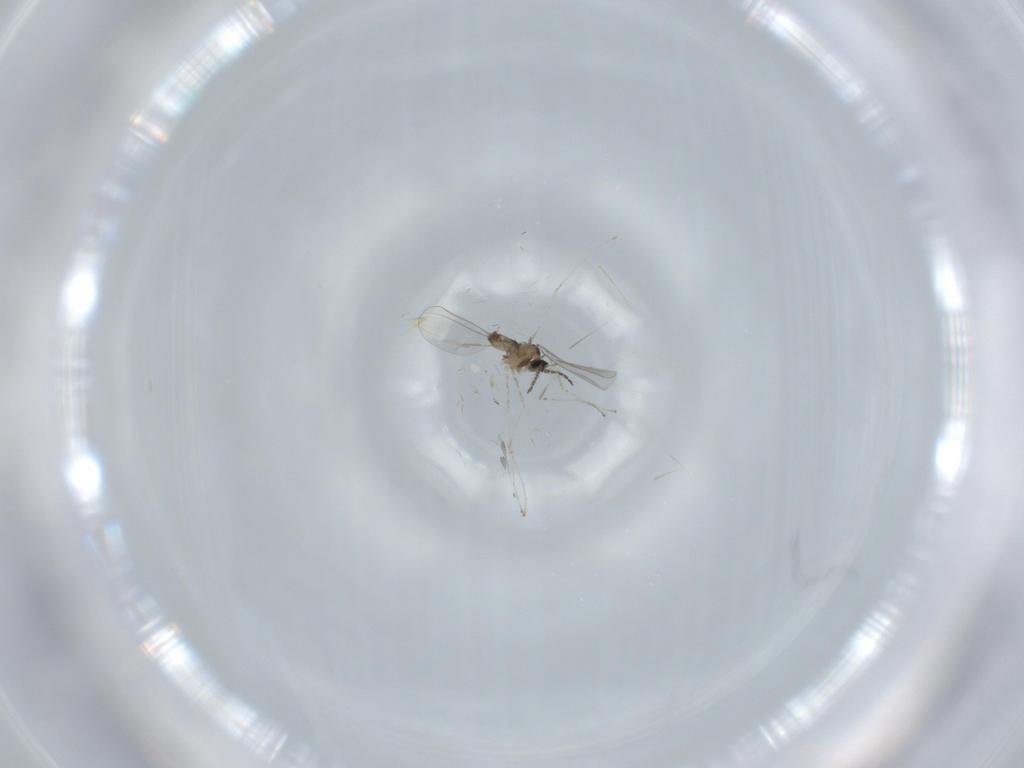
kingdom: Animalia
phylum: Arthropoda
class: Insecta
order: Diptera
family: Cecidomyiidae
